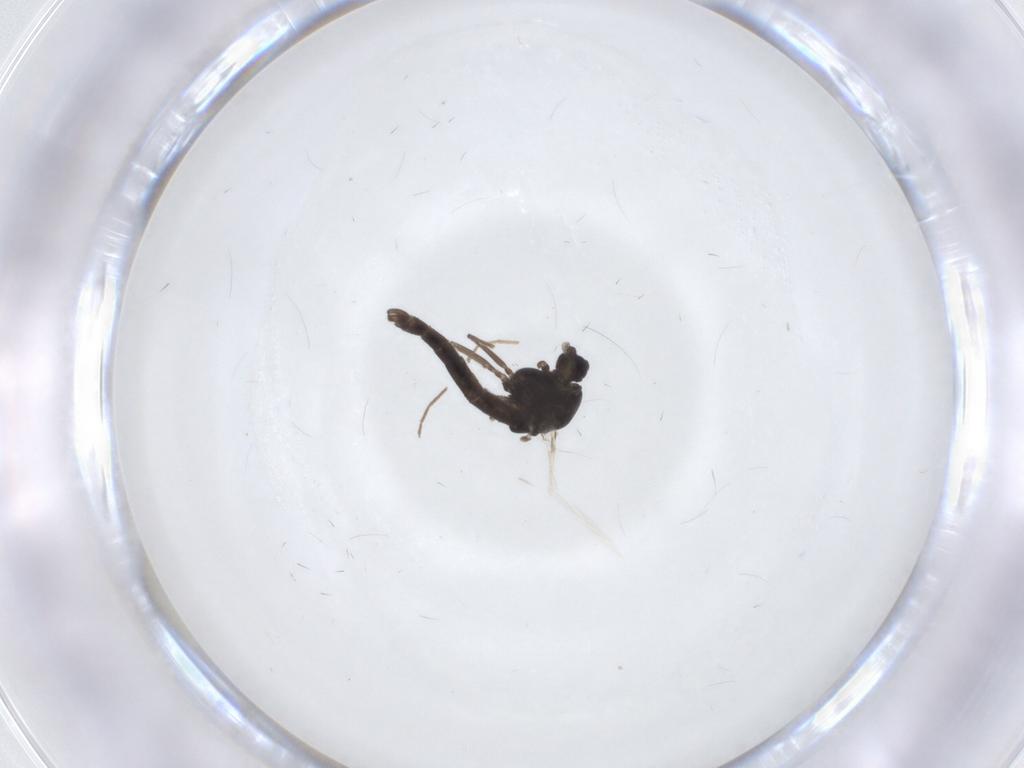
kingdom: Animalia
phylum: Arthropoda
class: Insecta
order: Diptera
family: Chironomidae
